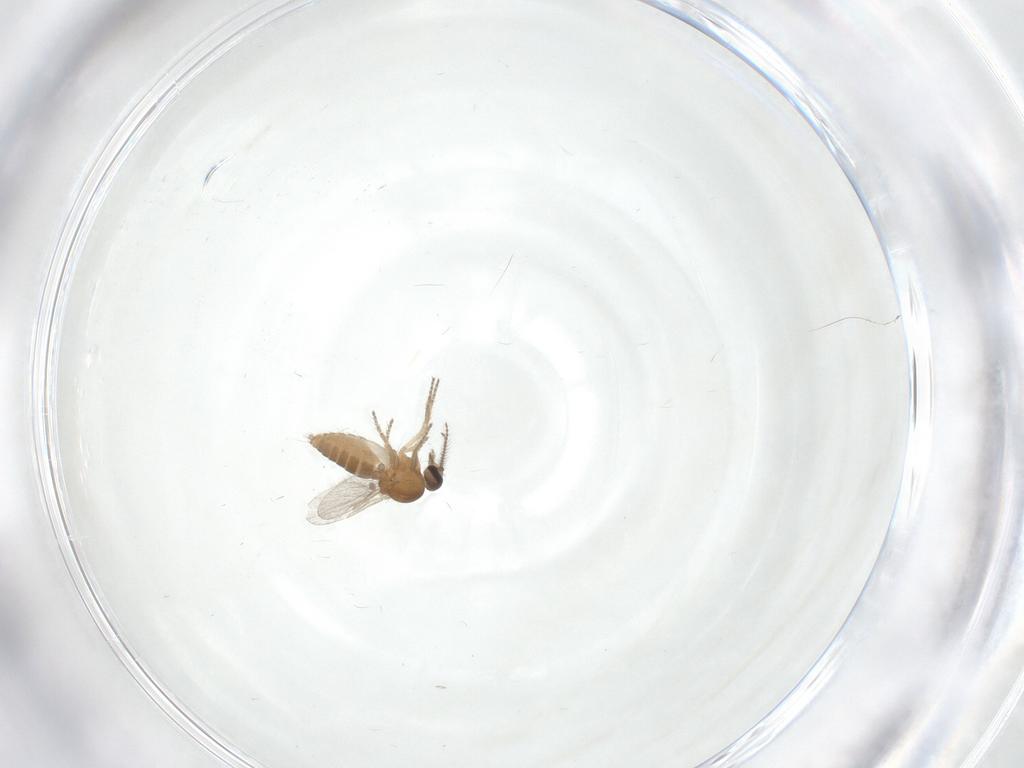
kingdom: Animalia
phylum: Arthropoda
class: Insecta
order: Diptera
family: Ceratopogonidae
